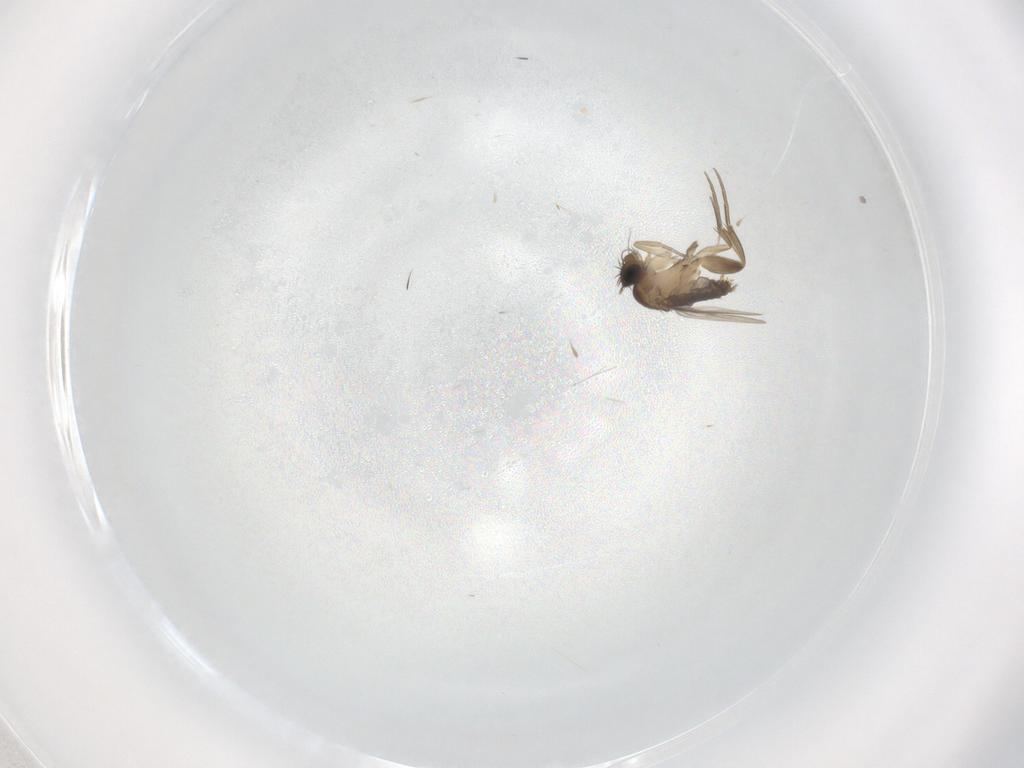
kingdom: Animalia
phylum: Arthropoda
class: Insecta
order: Diptera
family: Phoridae
